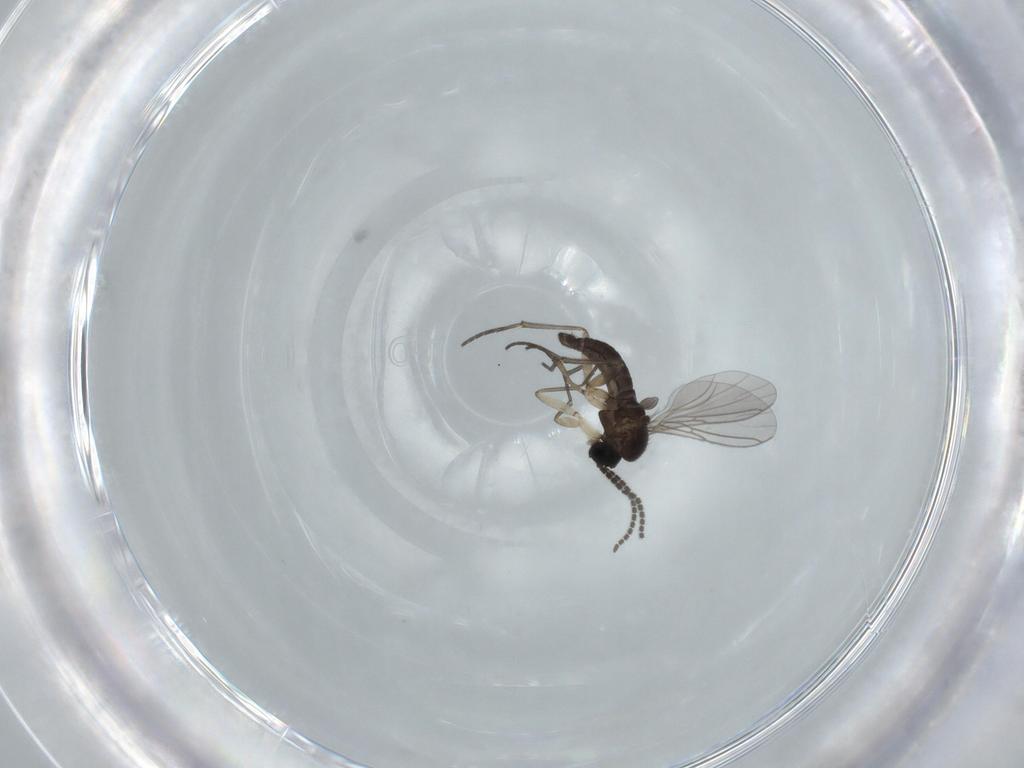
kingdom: Animalia
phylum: Arthropoda
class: Insecta
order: Diptera
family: Sciaridae
